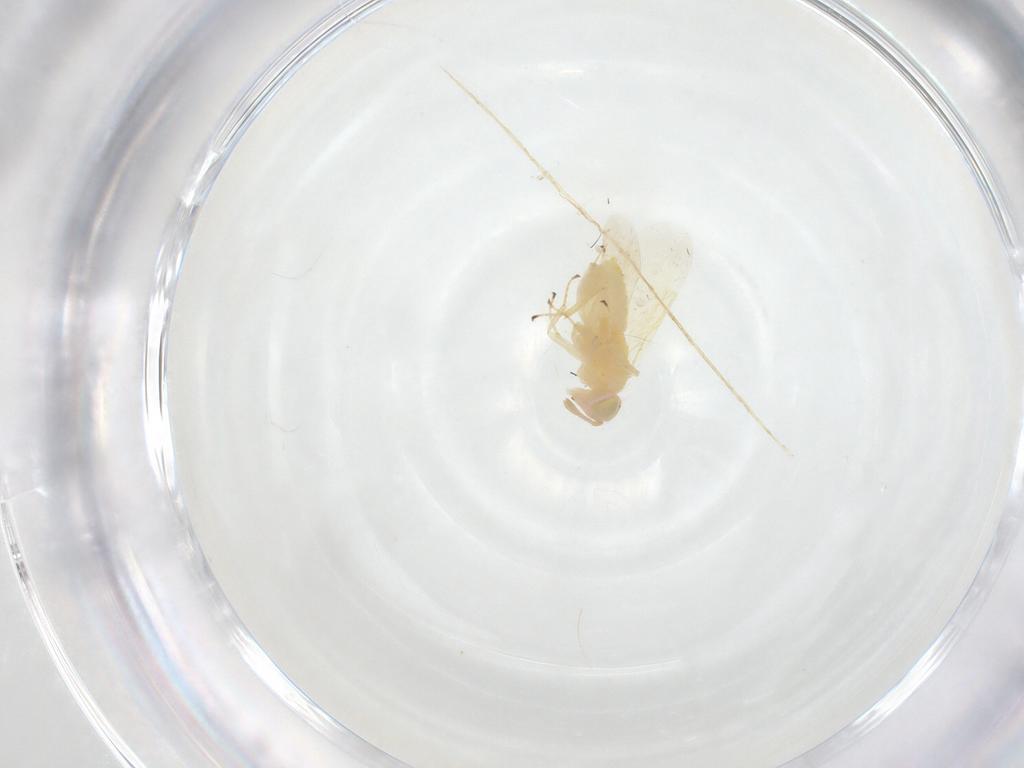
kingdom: Animalia
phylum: Arthropoda
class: Insecta
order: Hymenoptera
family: Aphelinidae
